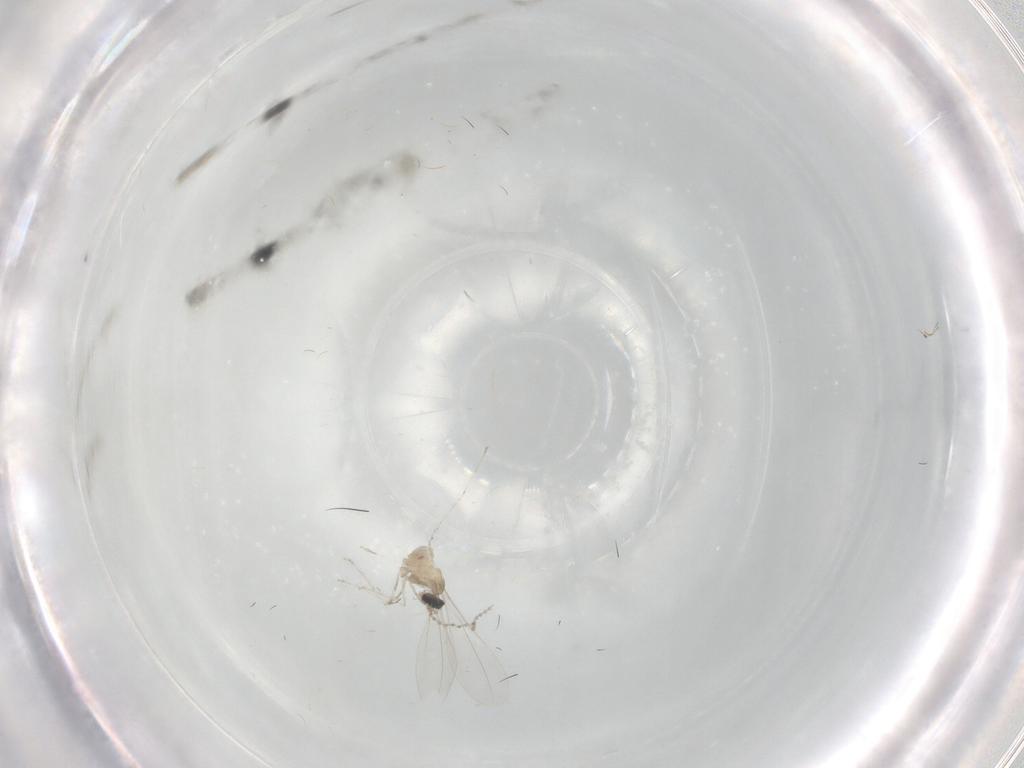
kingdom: Animalia
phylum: Arthropoda
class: Insecta
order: Diptera
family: Cecidomyiidae
